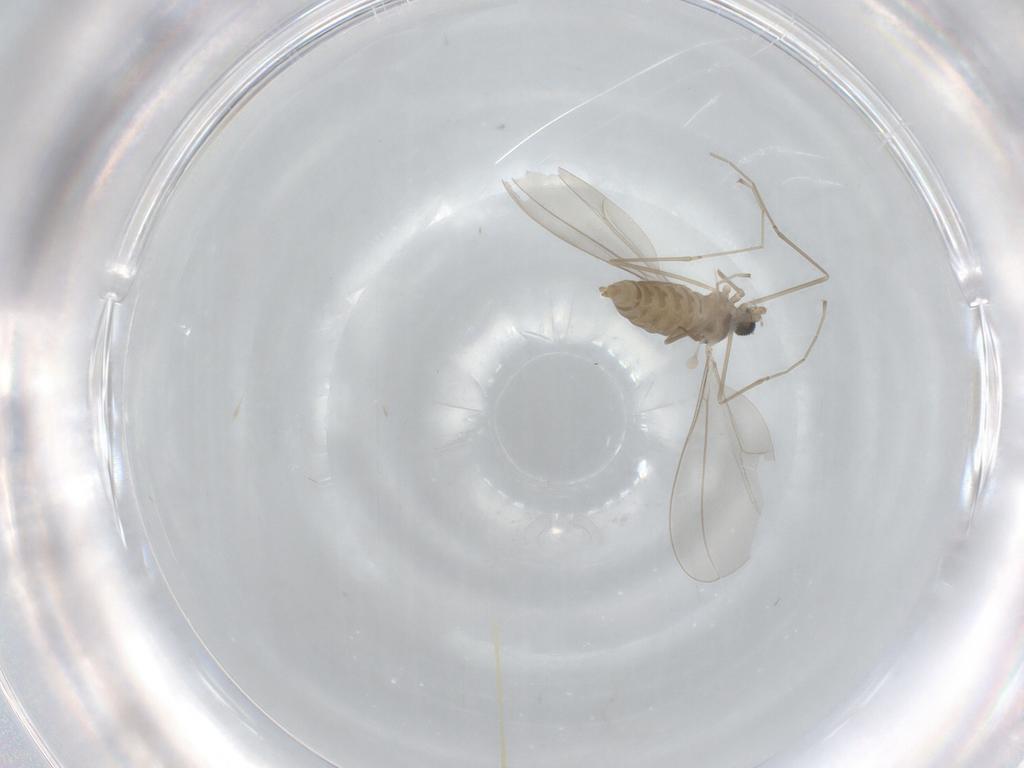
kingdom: Animalia
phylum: Arthropoda
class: Insecta
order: Diptera
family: Cecidomyiidae
